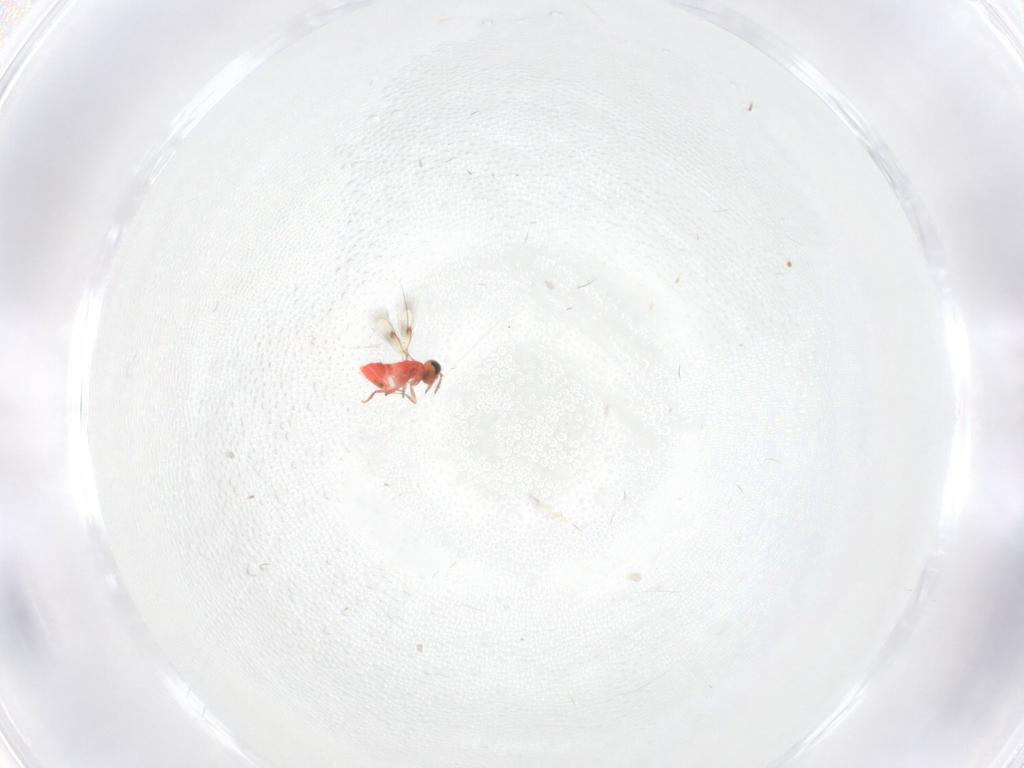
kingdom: Animalia
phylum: Arthropoda
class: Insecta
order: Hymenoptera
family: Trichogrammatidae
